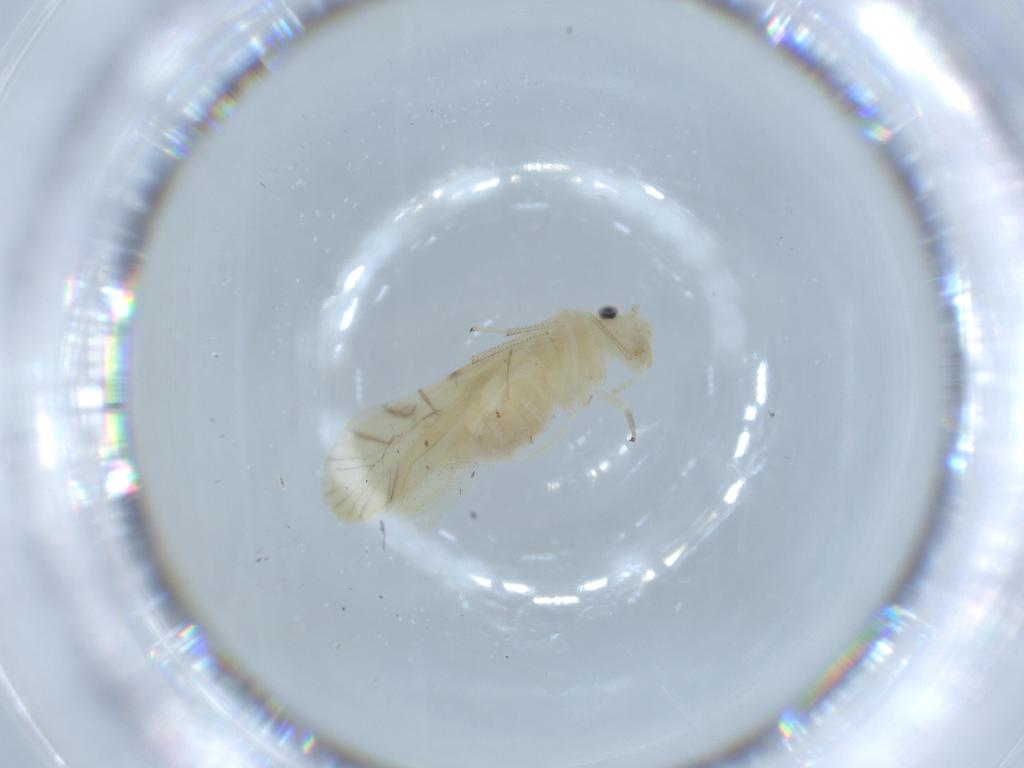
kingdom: Animalia
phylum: Arthropoda
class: Insecta
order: Psocodea
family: Caeciliusidae
